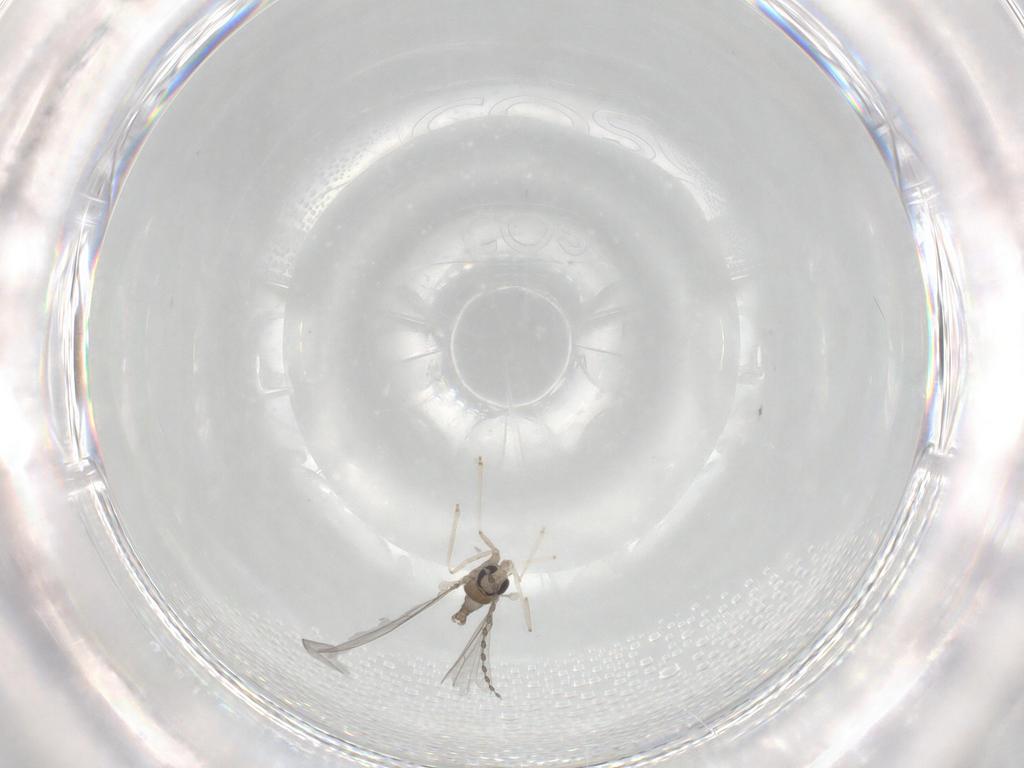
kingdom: Animalia
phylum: Arthropoda
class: Insecta
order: Diptera
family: Cecidomyiidae
